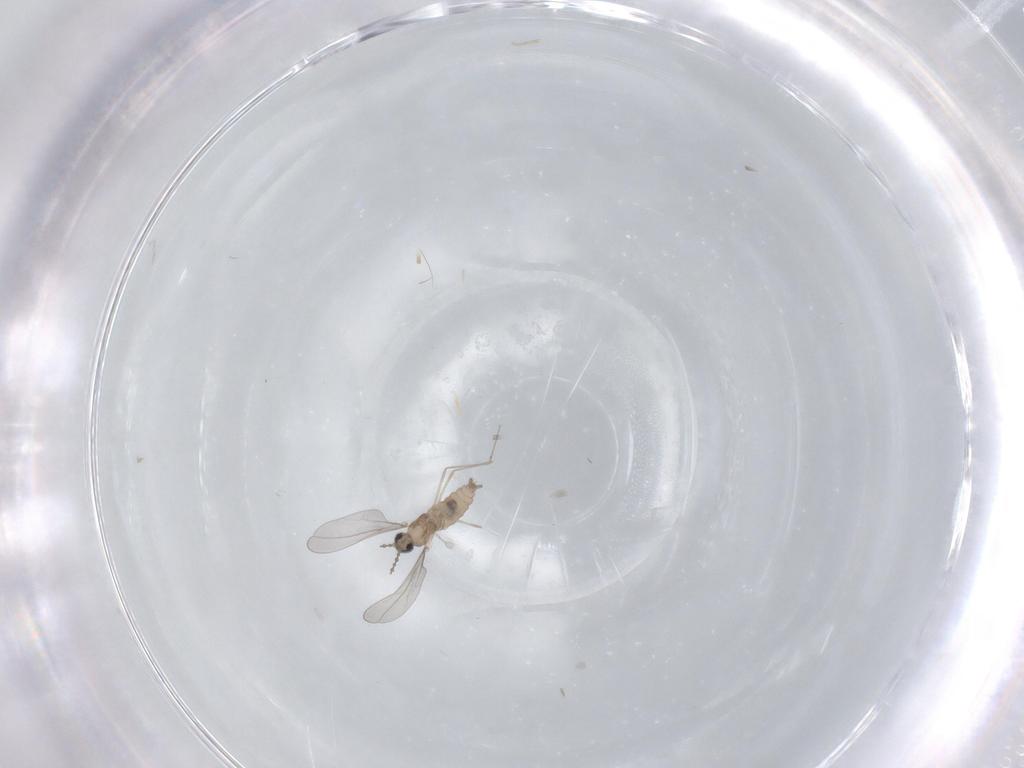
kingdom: Animalia
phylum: Arthropoda
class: Insecta
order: Diptera
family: Cecidomyiidae
